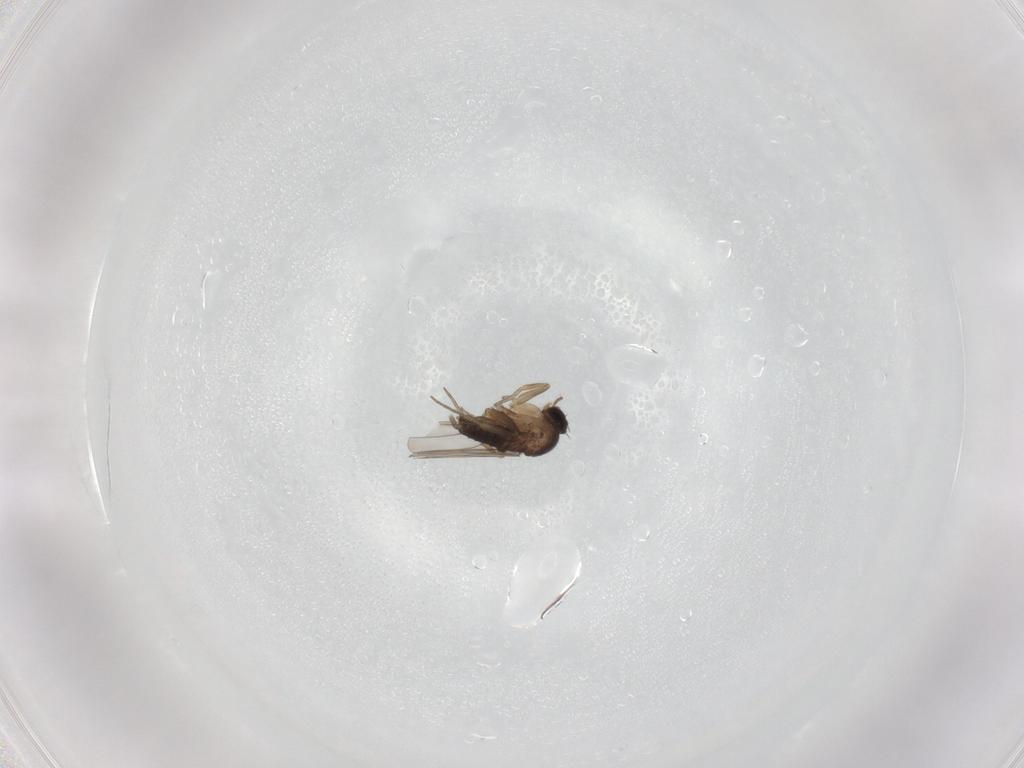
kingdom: Animalia
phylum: Arthropoda
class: Insecta
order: Diptera
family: Phoridae
